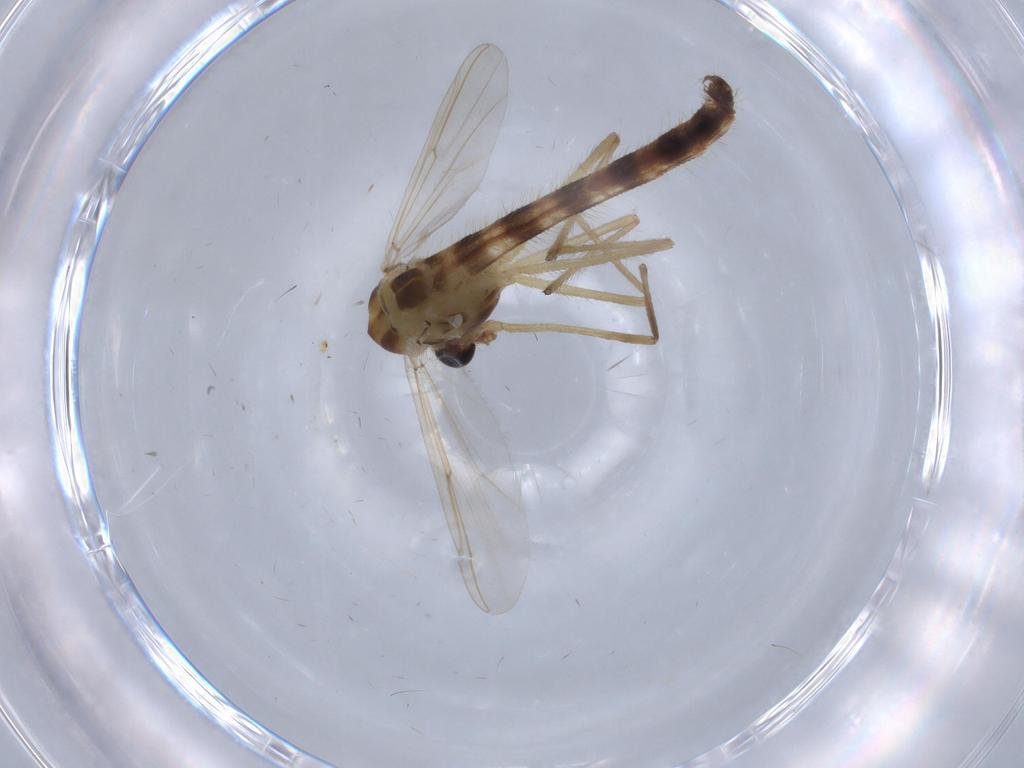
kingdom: Animalia
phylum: Arthropoda
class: Insecta
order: Diptera
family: Chironomidae
